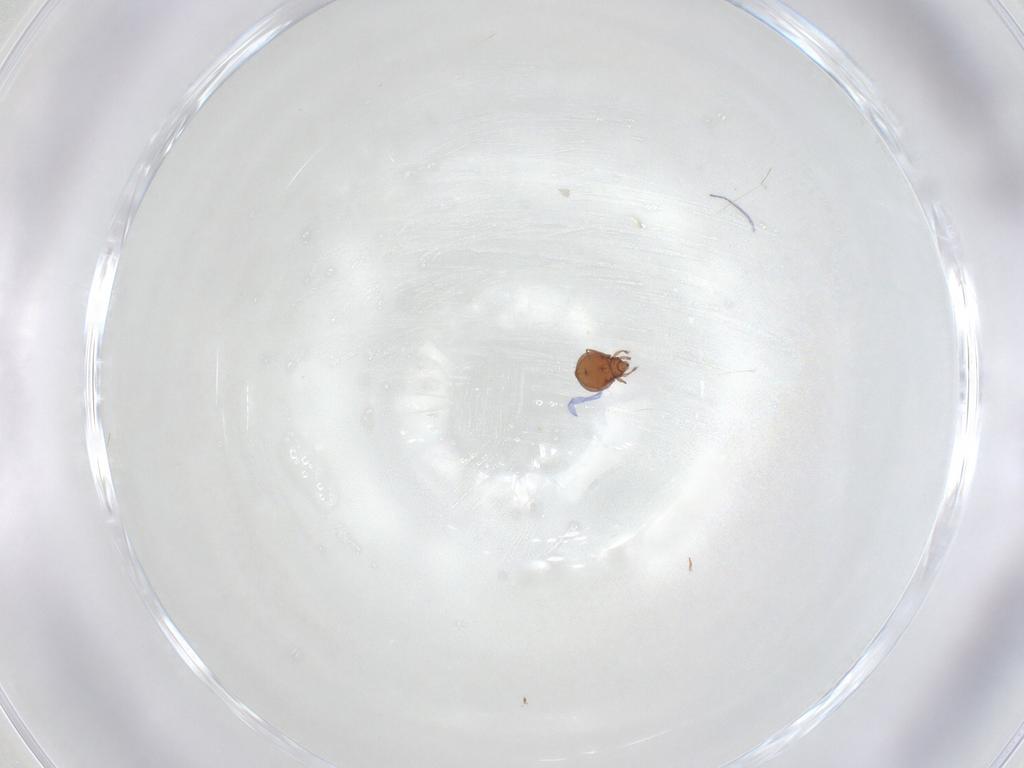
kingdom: Animalia
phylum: Arthropoda
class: Arachnida
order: Sarcoptiformes
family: Oribatulidae
